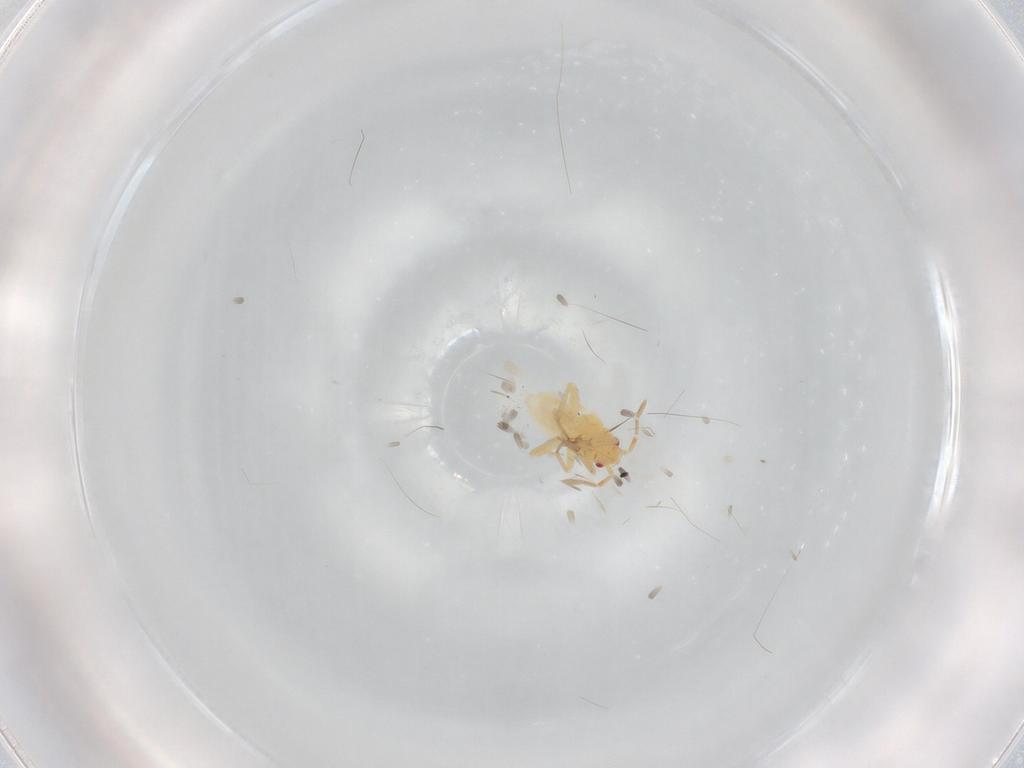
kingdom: Animalia
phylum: Arthropoda
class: Insecta
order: Hemiptera
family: Miridae
